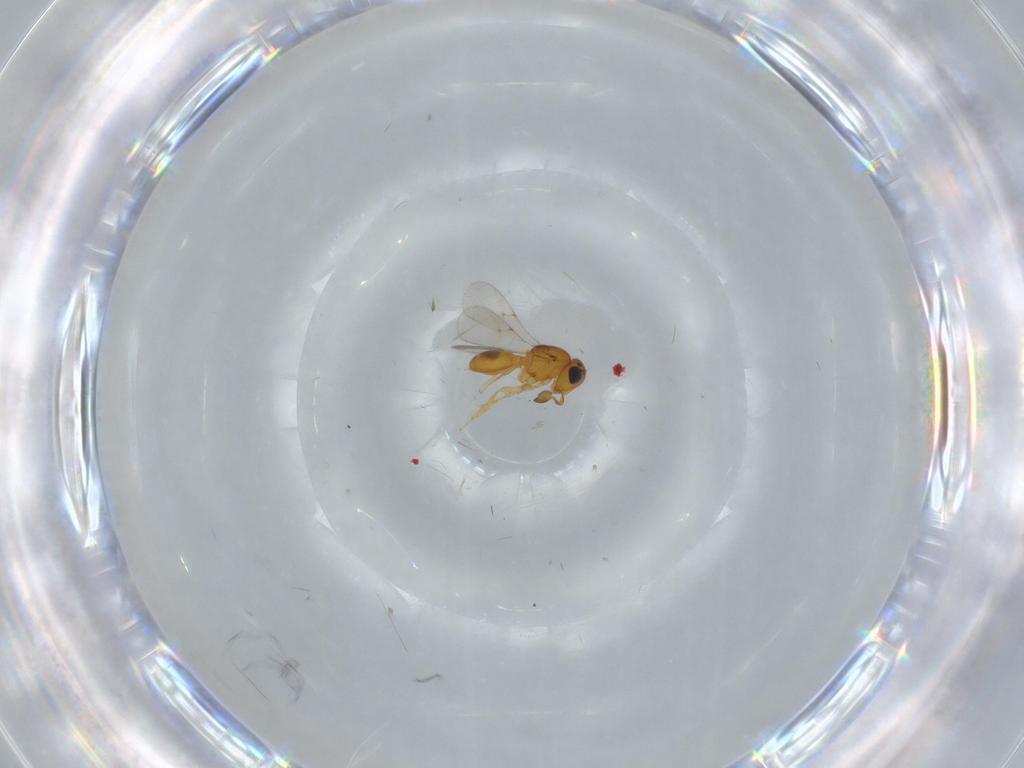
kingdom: Animalia
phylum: Arthropoda
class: Insecta
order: Hymenoptera
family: Scelionidae
